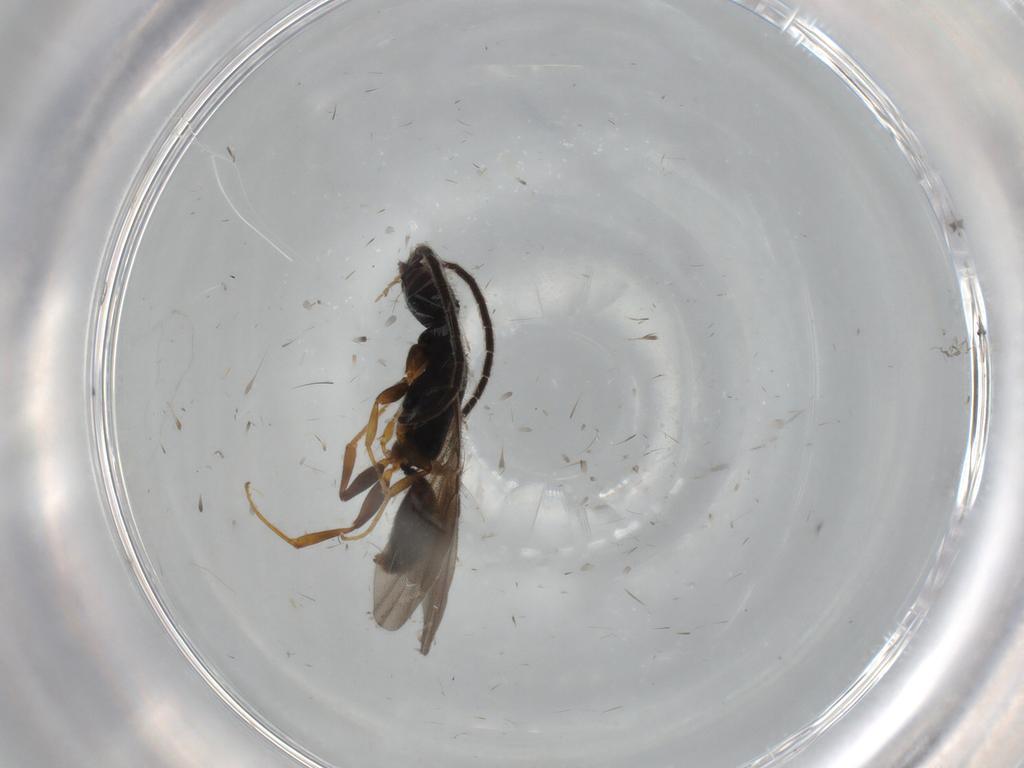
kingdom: Animalia
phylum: Arthropoda
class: Insecta
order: Hymenoptera
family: Bethylidae
